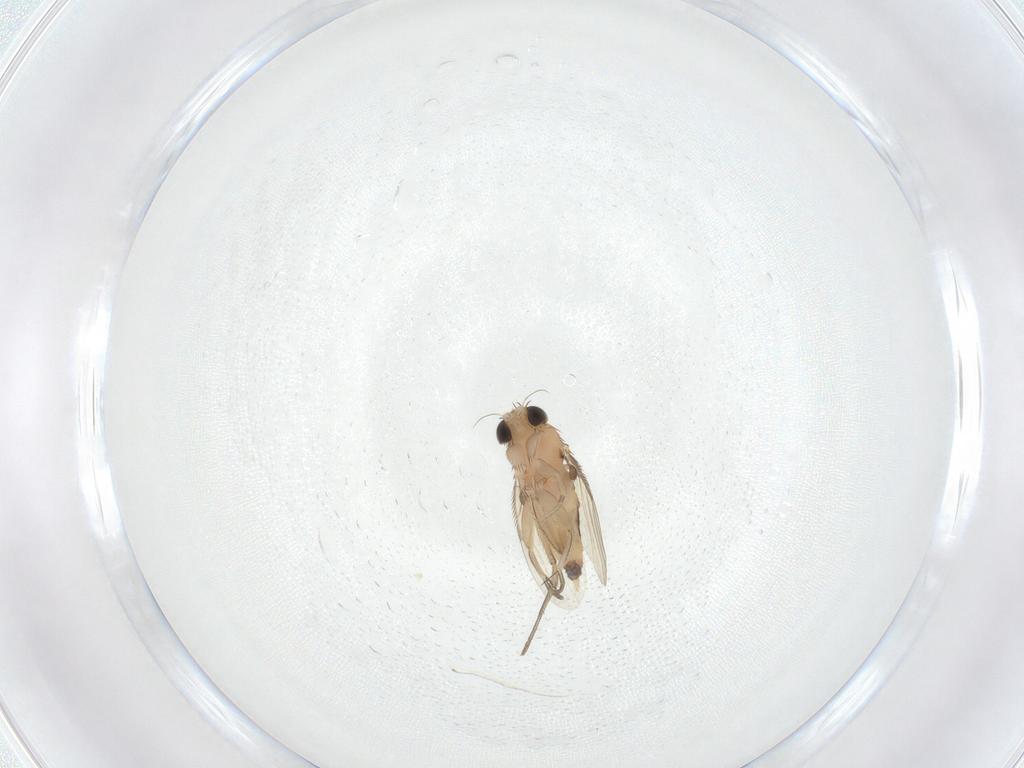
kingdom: Animalia
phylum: Arthropoda
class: Insecta
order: Diptera
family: Phoridae
